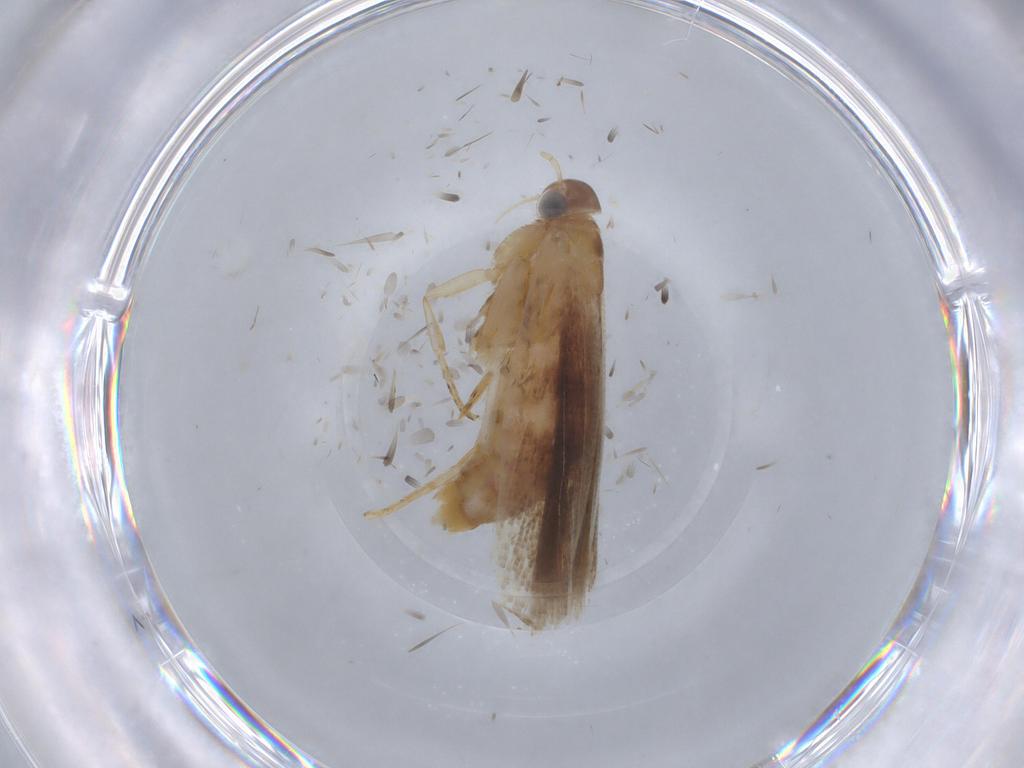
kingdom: Animalia
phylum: Arthropoda
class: Insecta
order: Lepidoptera
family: Gelechiidae
